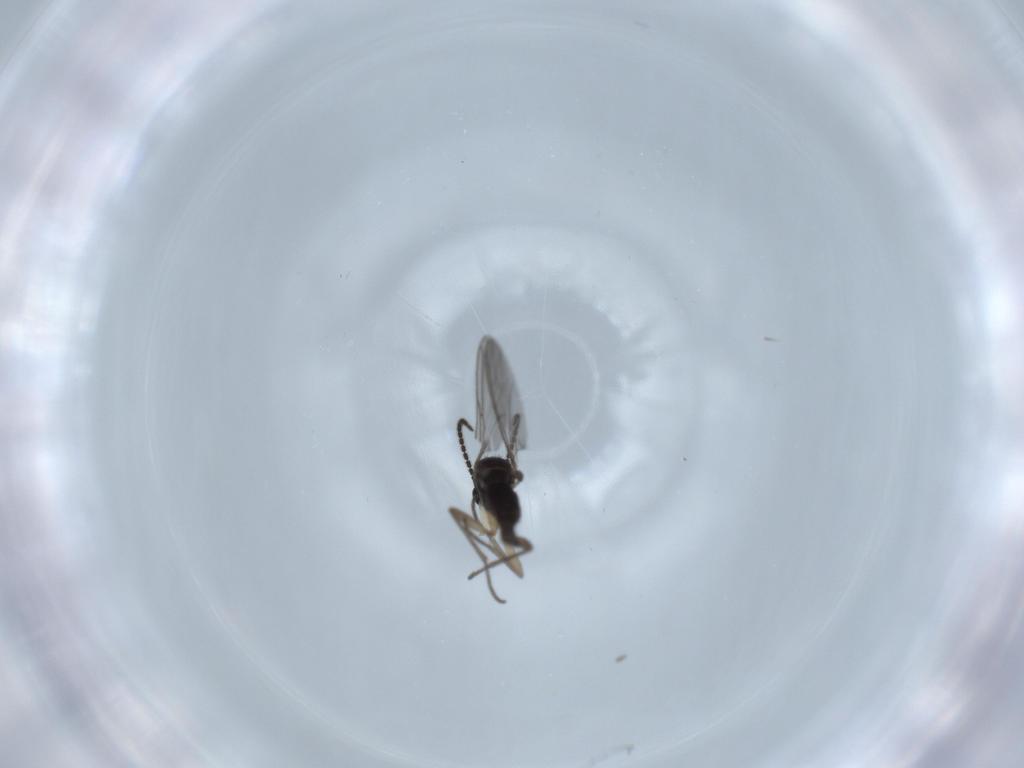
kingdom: Animalia
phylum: Arthropoda
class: Insecta
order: Diptera
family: Sciaridae
